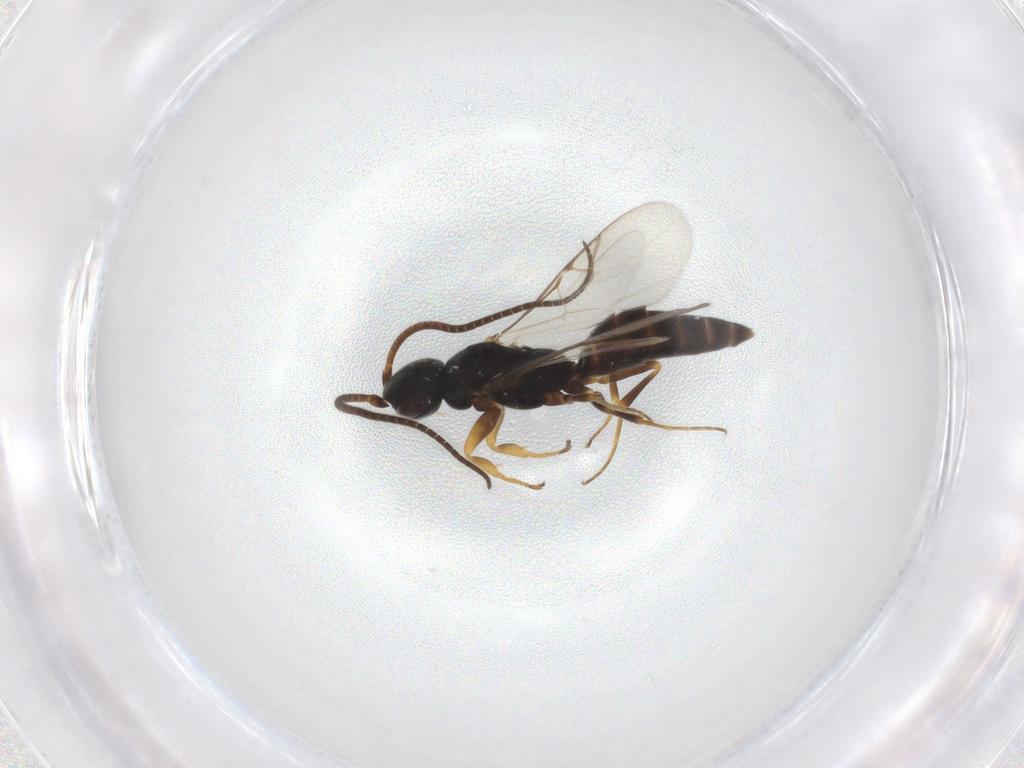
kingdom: Animalia
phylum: Arthropoda
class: Insecta
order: Hymenoptera
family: Sclerogibbidae
